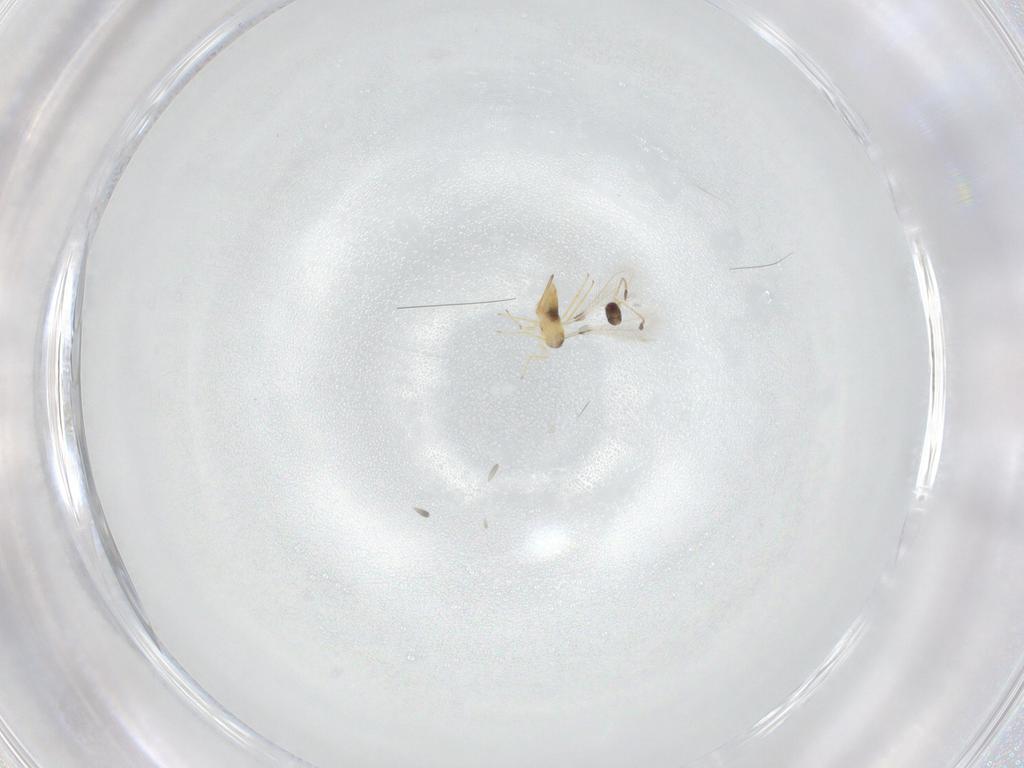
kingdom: Animalia
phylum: Arthropoda
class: Insecta
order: Hymenoptera
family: Mymaridae
